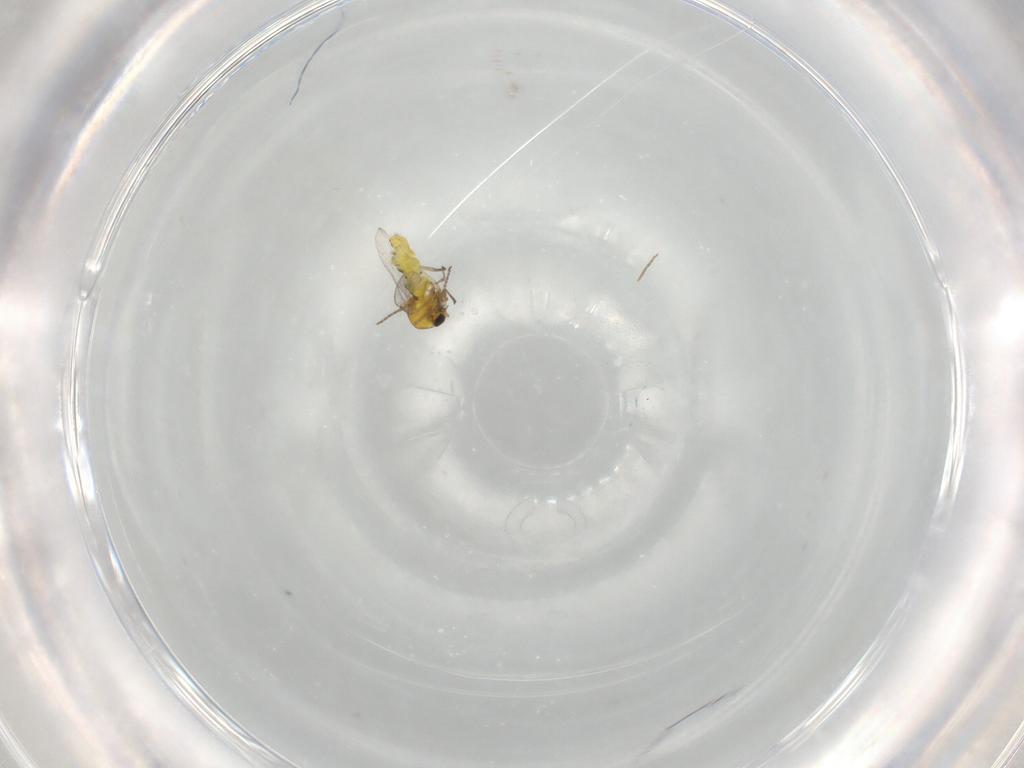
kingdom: Animalia
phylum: Arthropoda
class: Insecta
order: Diptera
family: Ceratopogonidae
